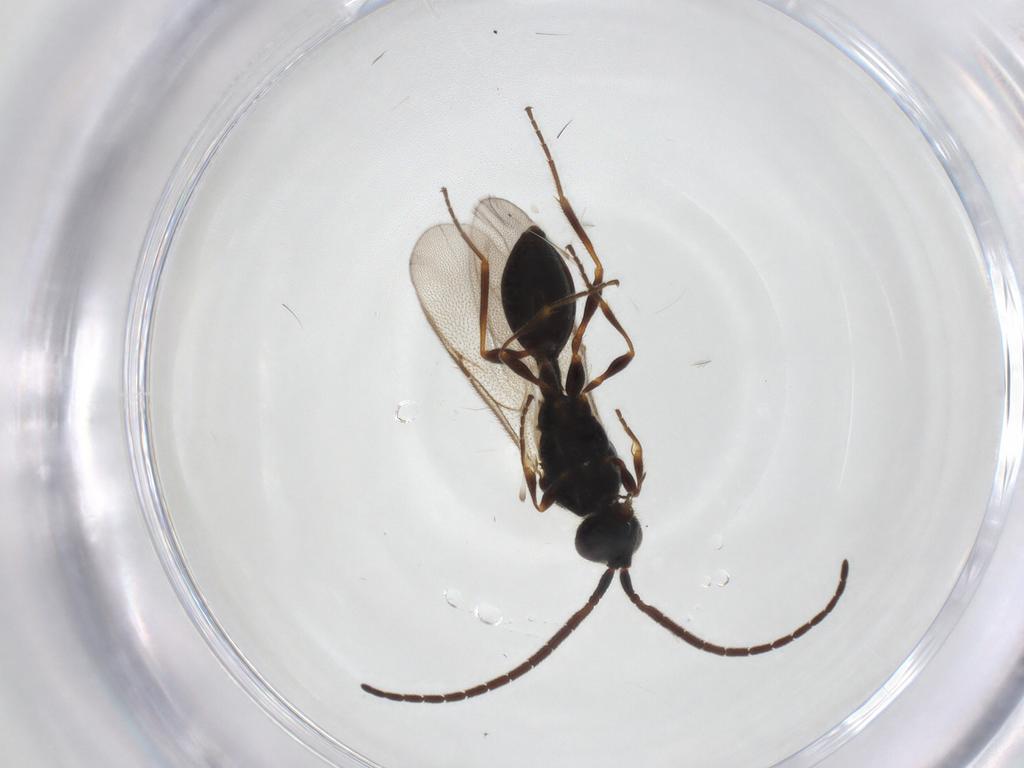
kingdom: Animalia
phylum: Arthropoda
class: Insecta
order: Hymenoptera
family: Diapriidae
